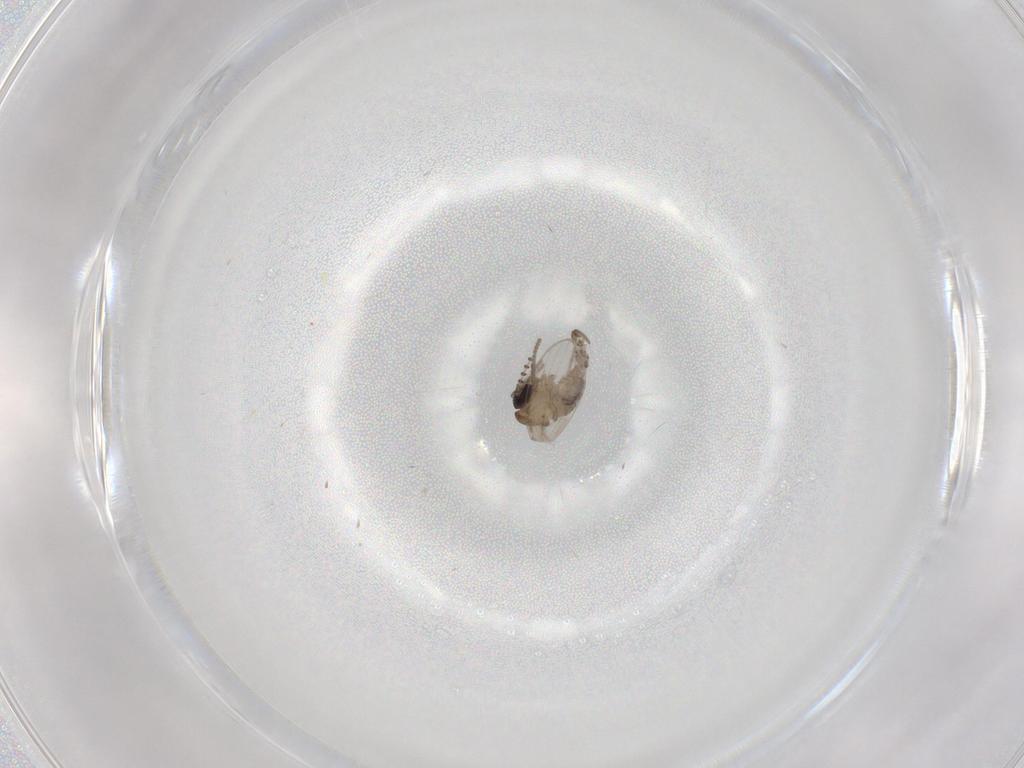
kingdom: Animalia
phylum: Arthropoda
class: Insecta
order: Diptera
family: Psychodidae
